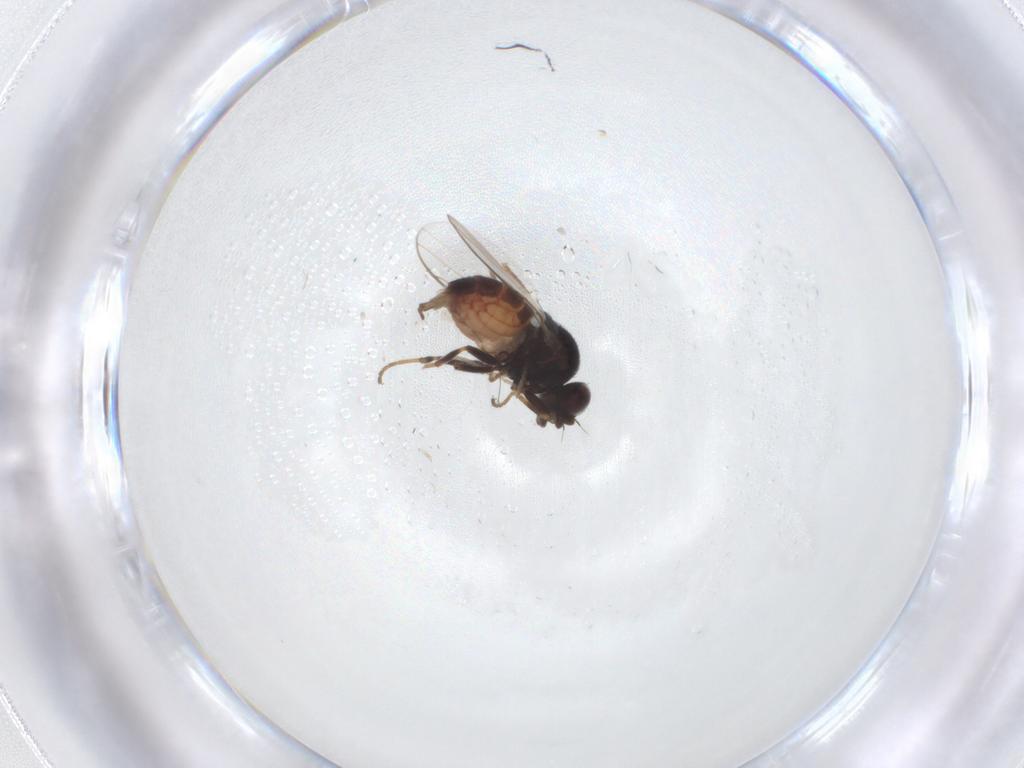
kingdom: Animalia
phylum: Arthropoda
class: Insecta
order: Diptera
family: Chloropidae
